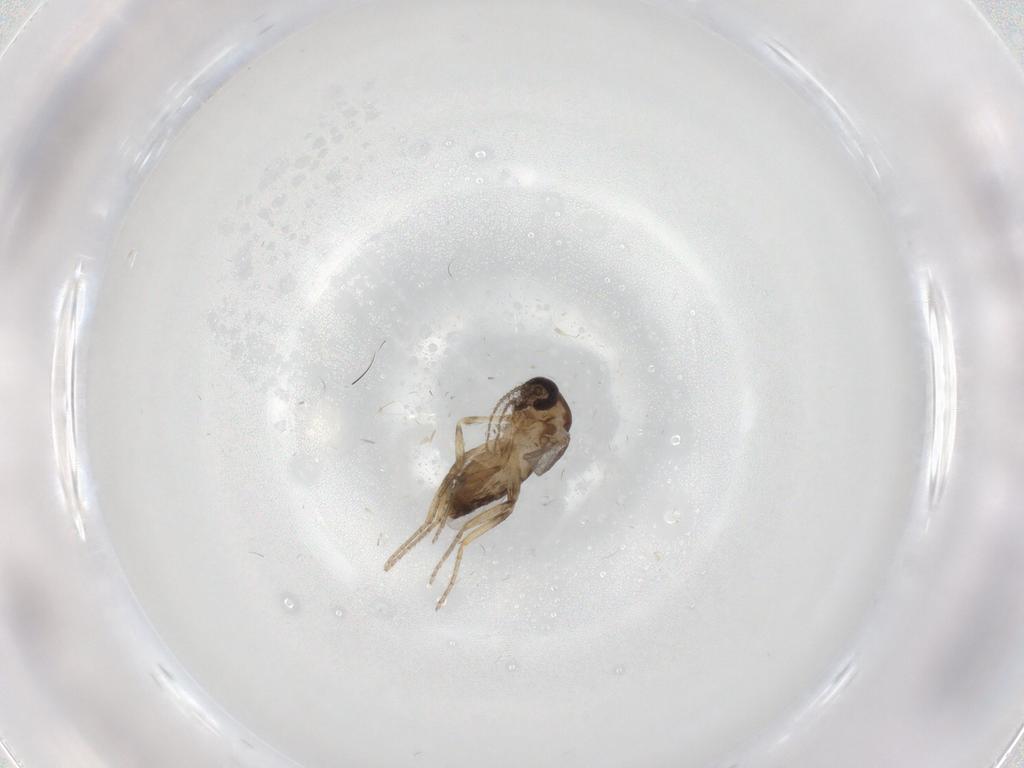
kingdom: Animalia
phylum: Arthropoda
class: Insecta
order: Diptera
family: Ceratopogonidae
